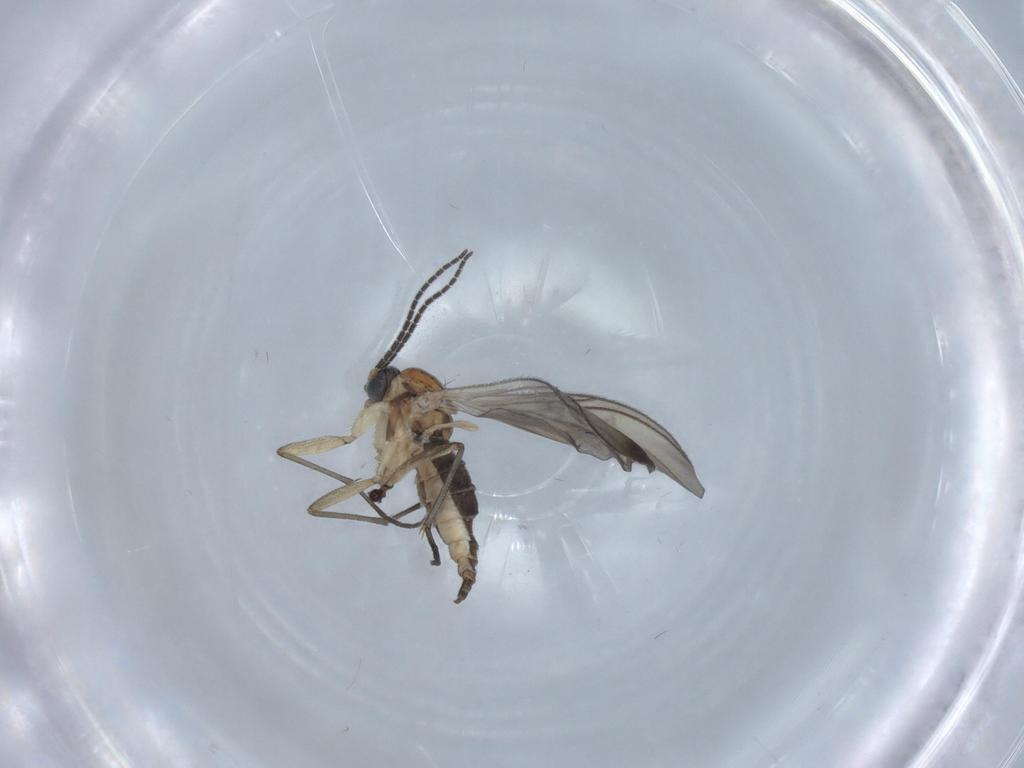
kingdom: Animalia
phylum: Arthropoda
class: Insecta
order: Diptera
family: Sciaridae
